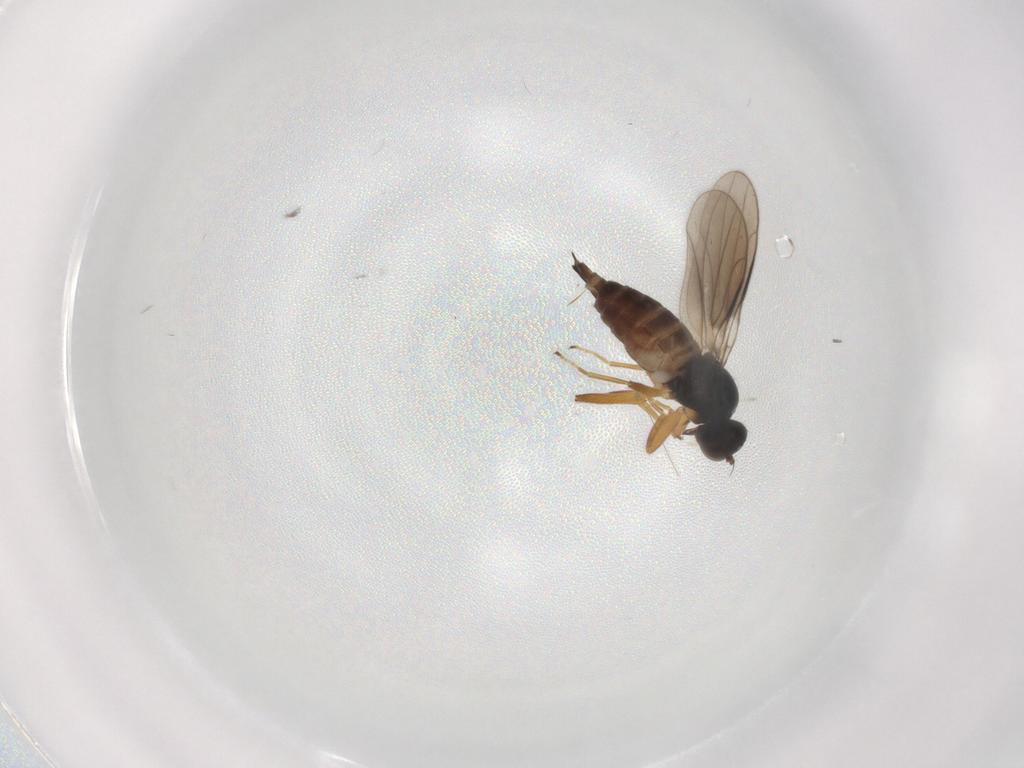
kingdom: Animalia
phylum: Arthropoda
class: Insecta
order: Diptera
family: Hybotidae
